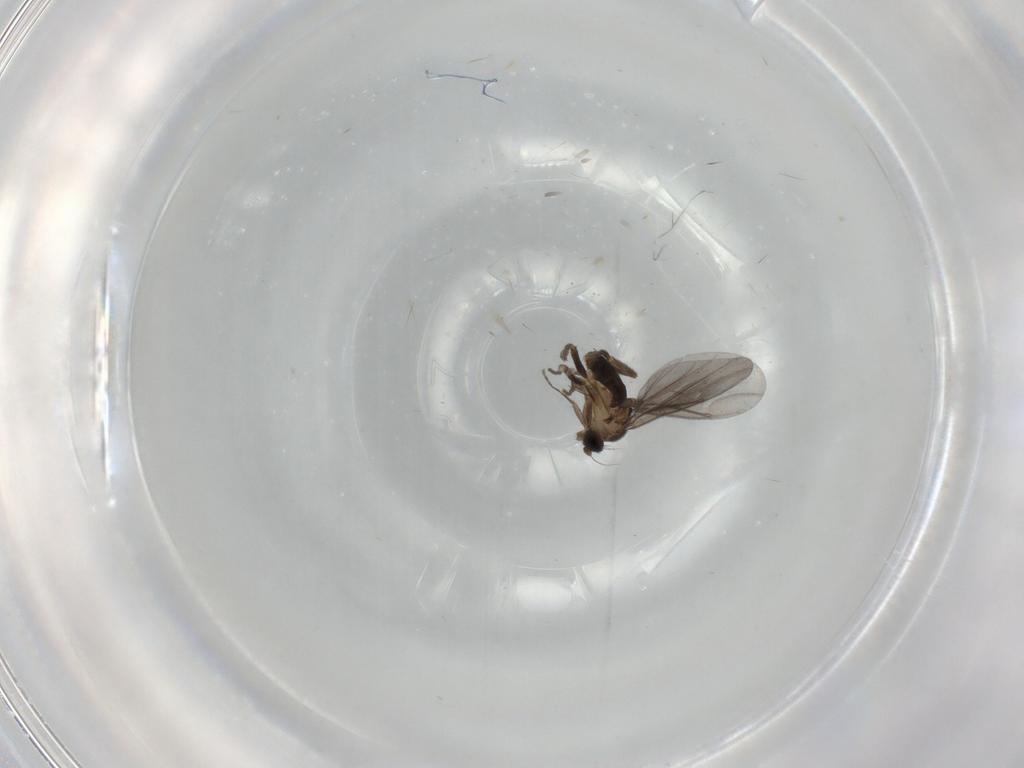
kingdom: Animalia
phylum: Arthropoda
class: Insecta
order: Diptera
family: Phoridae
